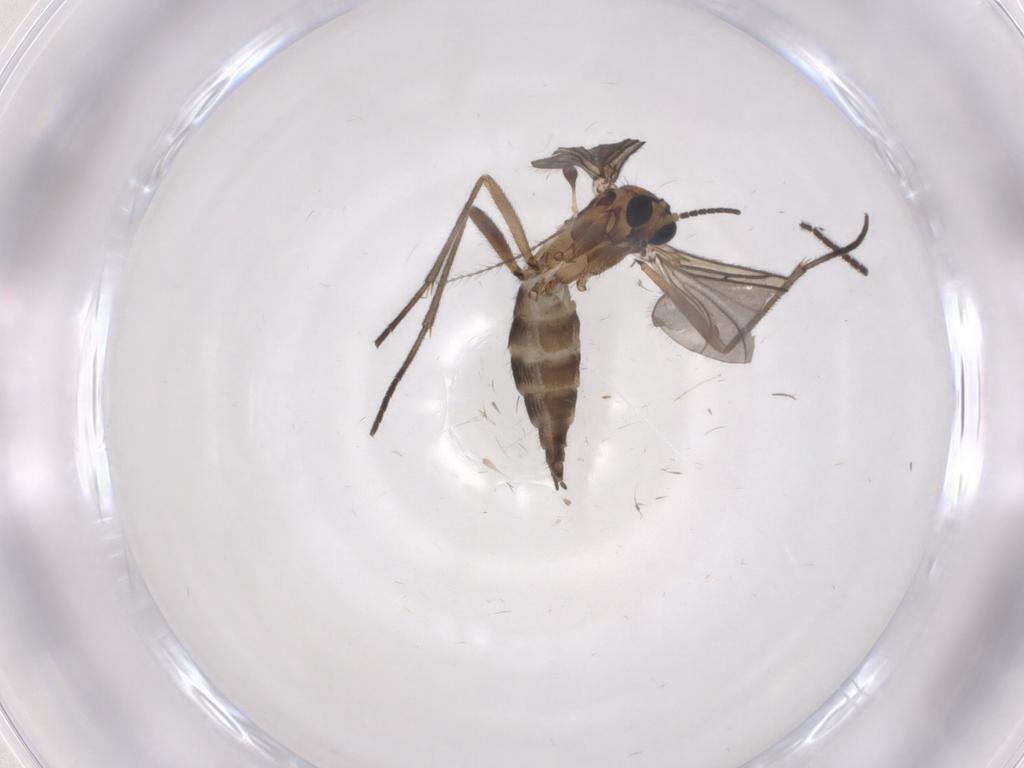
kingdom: Animalia
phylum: Arthropoda
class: Insecta
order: Diptera
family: Sciaridae
